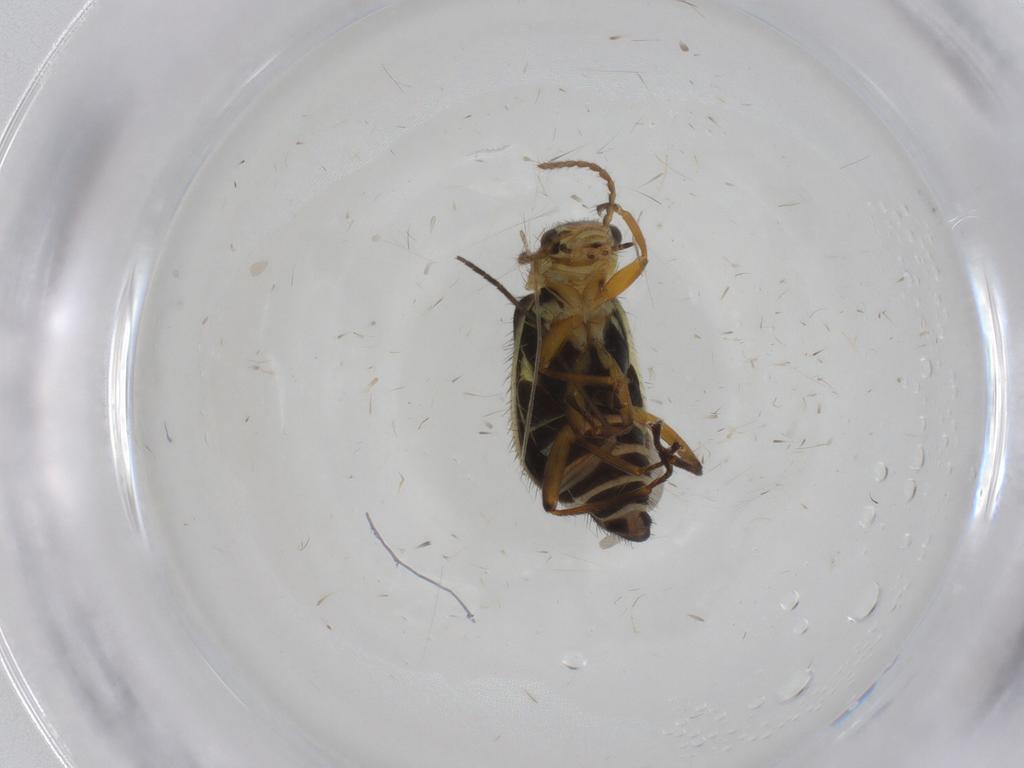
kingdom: Animalia
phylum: Arthropoda
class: Insecta
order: Coleoptera
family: Melyridae
